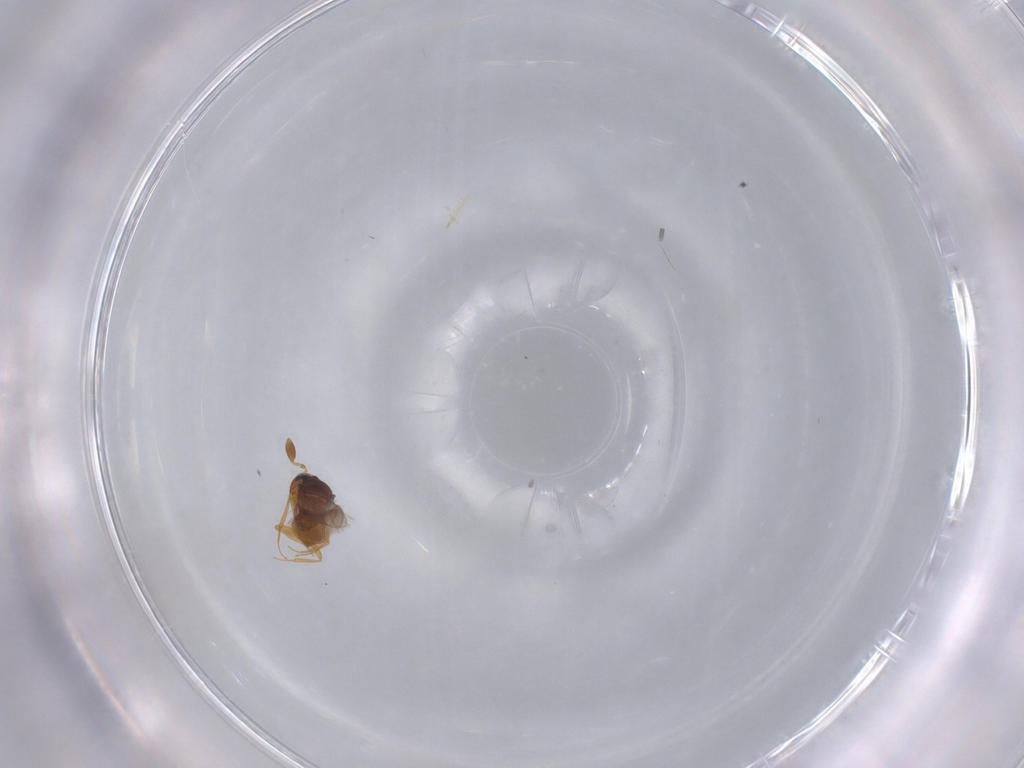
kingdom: Animalia
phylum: Arthropoda
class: Insecta
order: Hymenoptera
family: Scelionidae
